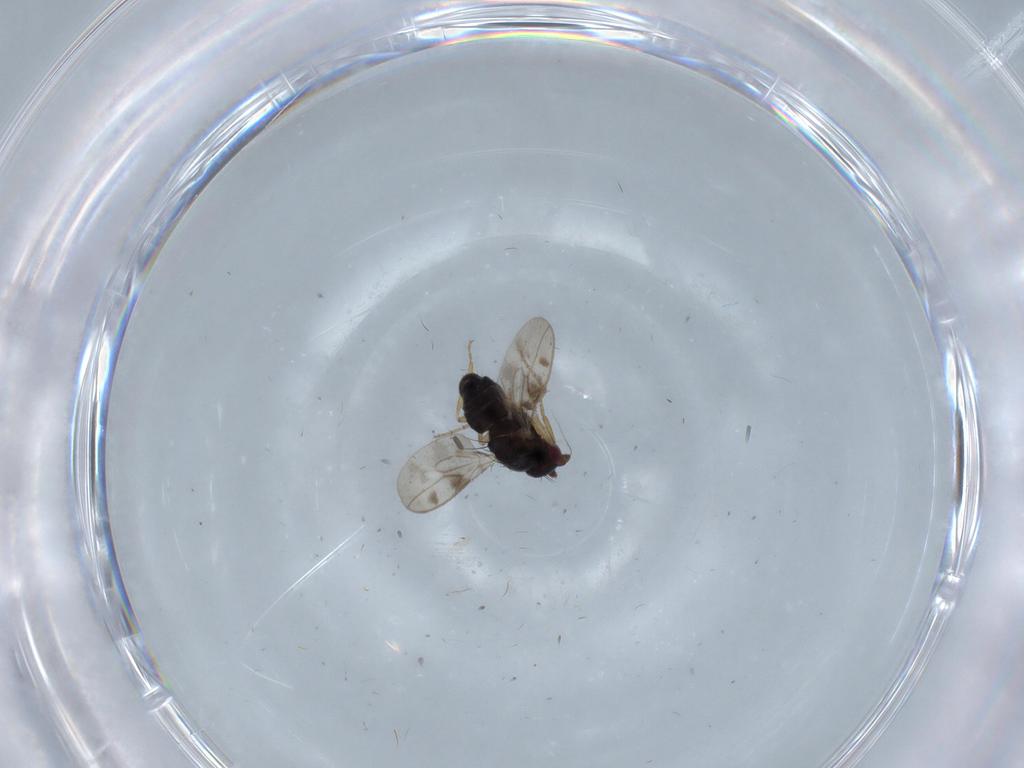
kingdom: Animalia
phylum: Arthropoda
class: Insecta
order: Diptera
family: Sphaeroceridae
